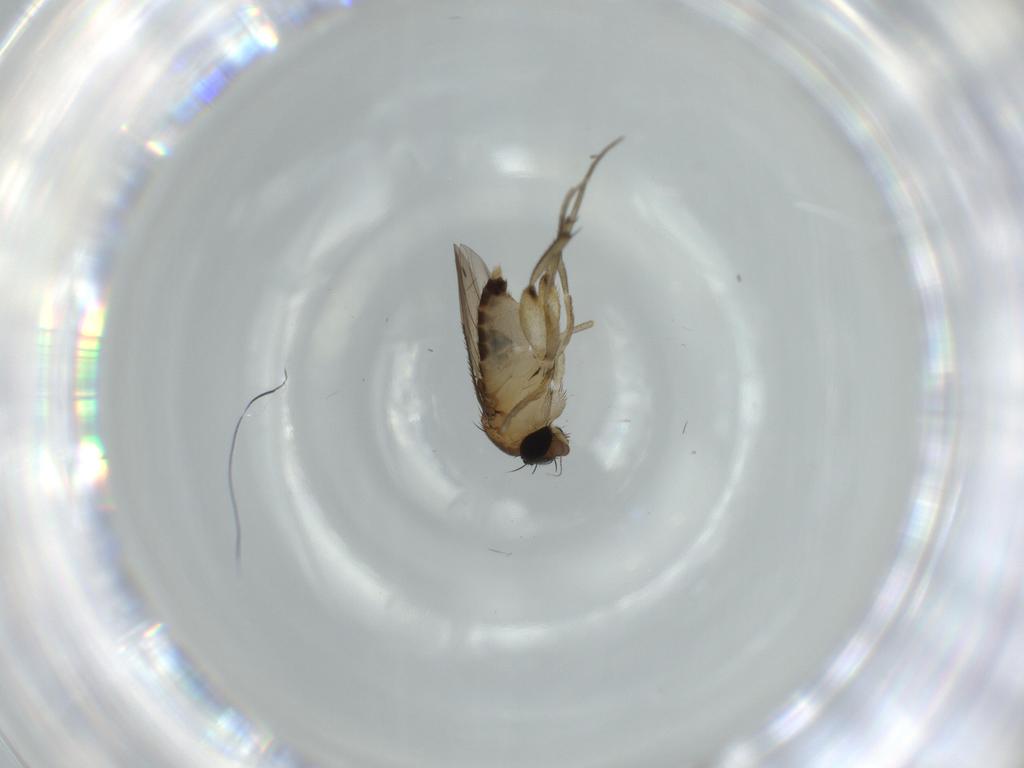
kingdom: Animalia
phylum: Arthropoda
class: Insecta
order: Diptera
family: Phoridae
